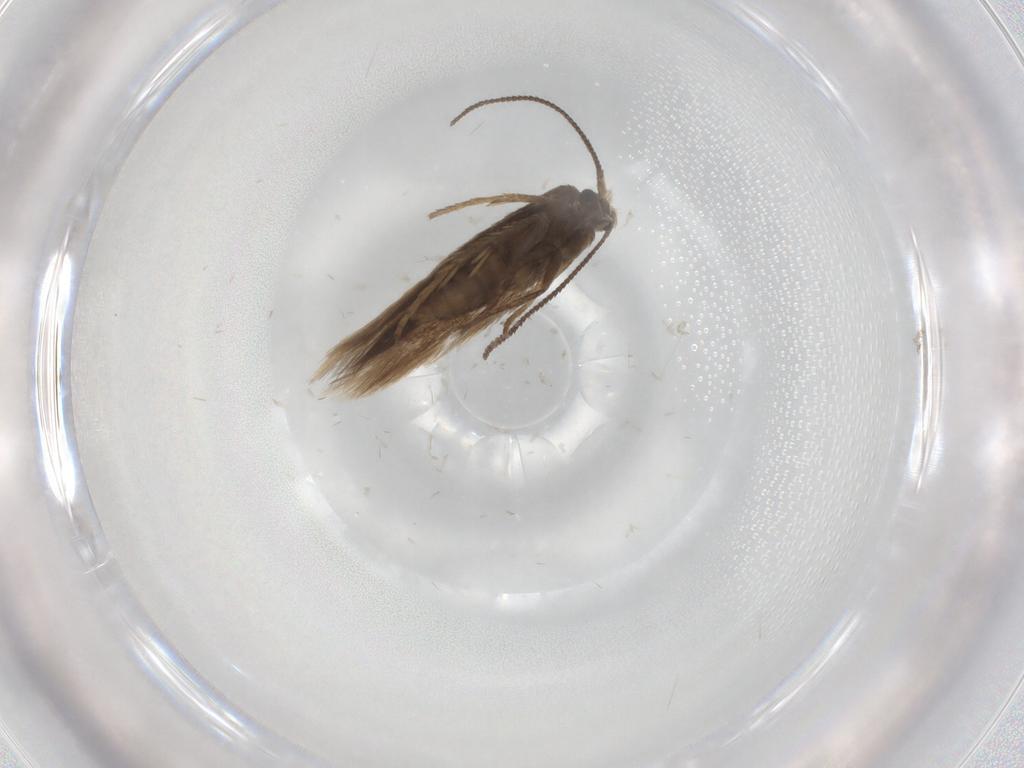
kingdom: Animalia
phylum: Arthropoda
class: Insecta
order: Lepidoptera
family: Nepticulidae
